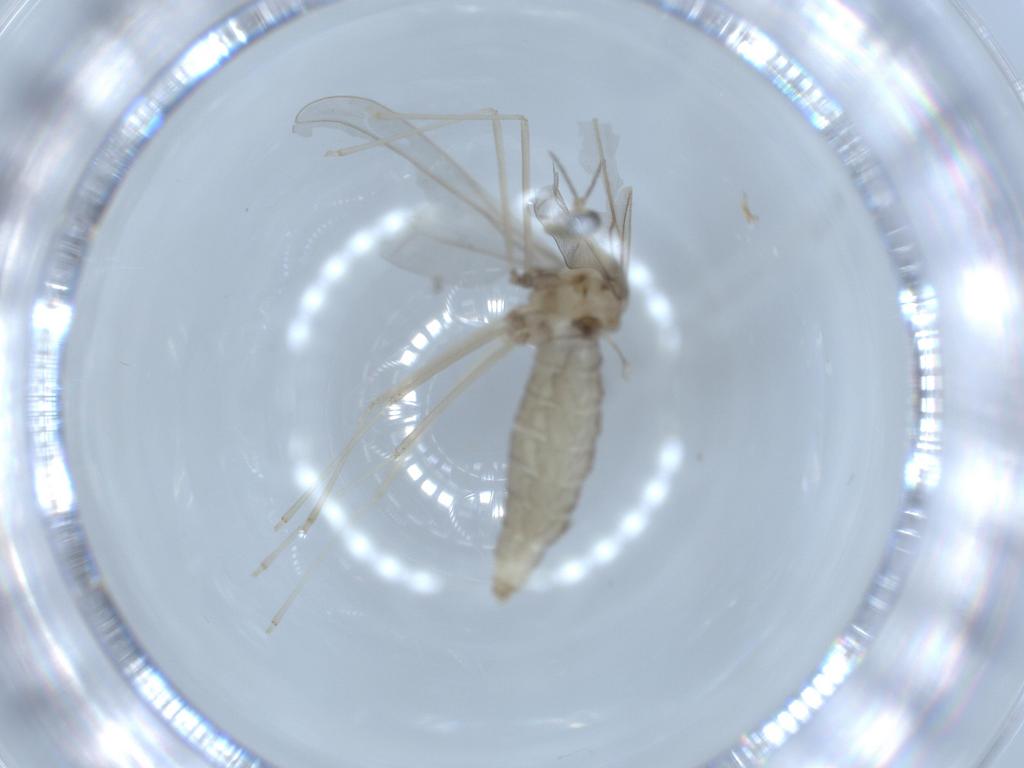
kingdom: Animalia
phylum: Arthropoda
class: Insecta
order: Diptera
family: Cecidomyiidae
